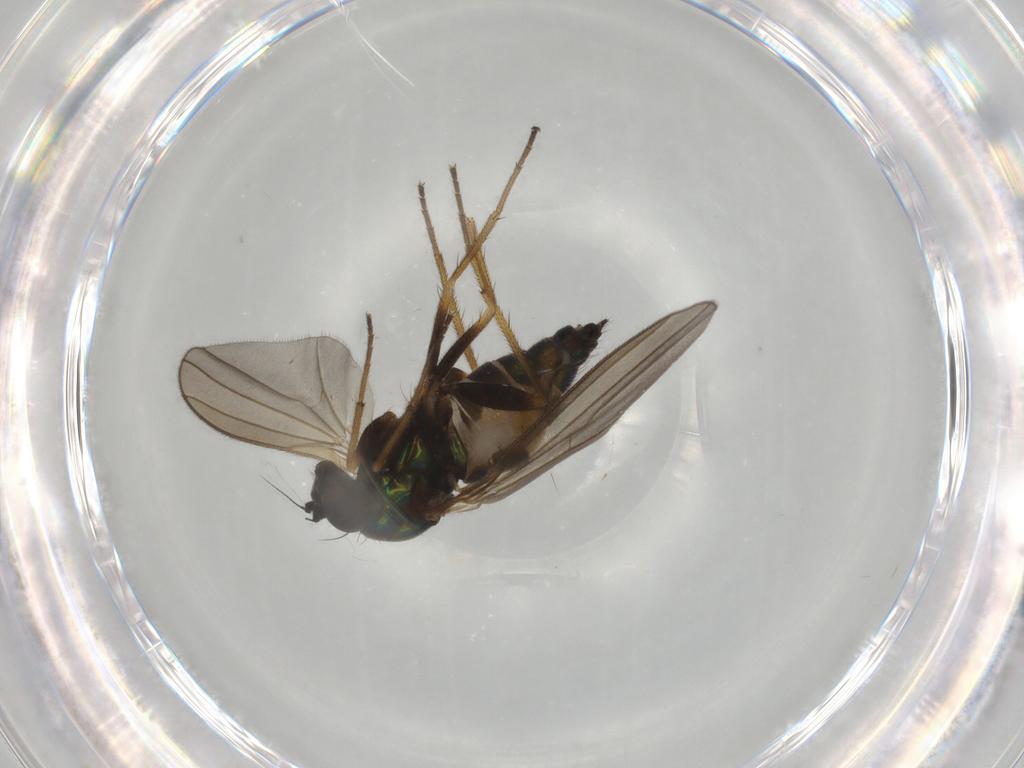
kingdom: Animalia
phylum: Arthropoda
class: Insecta
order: Diptera
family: Dolichopodidae
